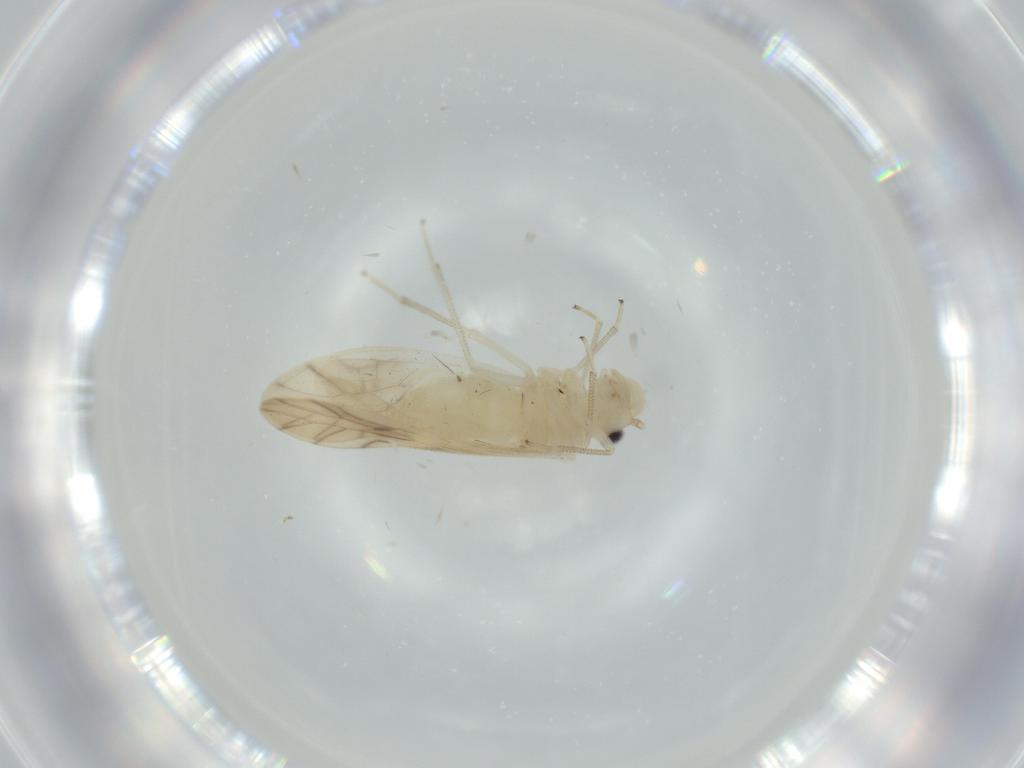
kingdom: Animalia
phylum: Arthropoda
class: Insecta
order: Psocodea
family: Caeciliusidae
